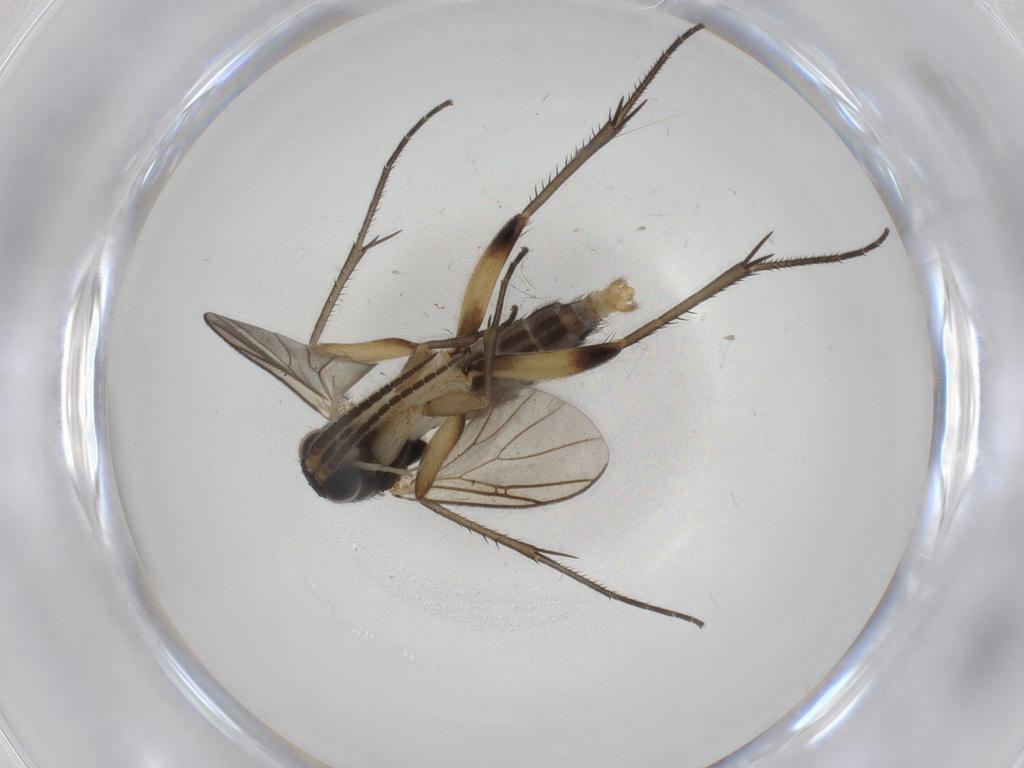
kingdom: Animalia
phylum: Arthropoda
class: Insecta
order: Diptera
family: Mycetophilidae
